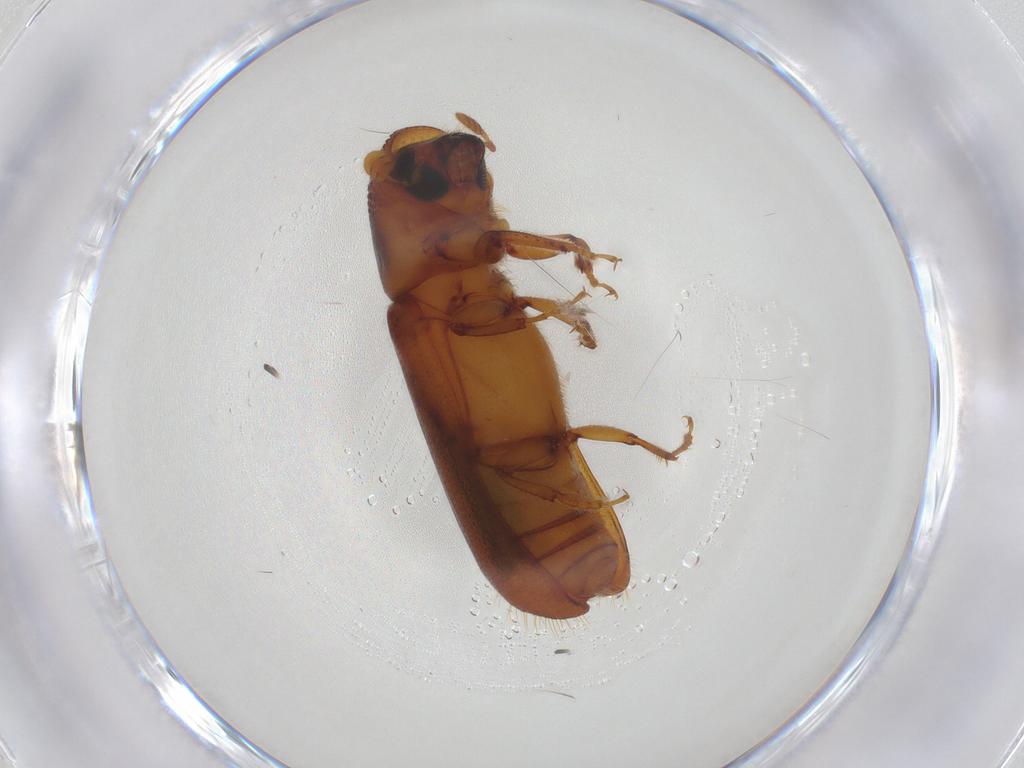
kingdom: Animalia
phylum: Arthropoda
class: Insecta
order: Coleoptera
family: Curculionidae
